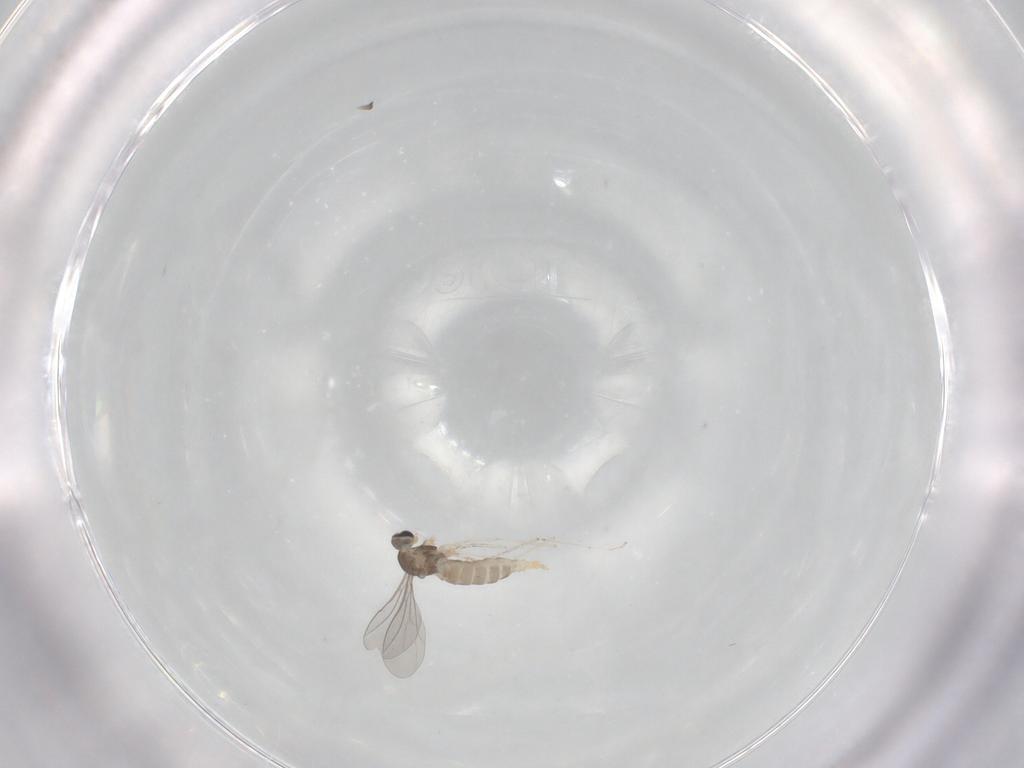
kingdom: Animalia
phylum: Arthropoda
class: Insecta
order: Diptera
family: Cecidomyiidae
